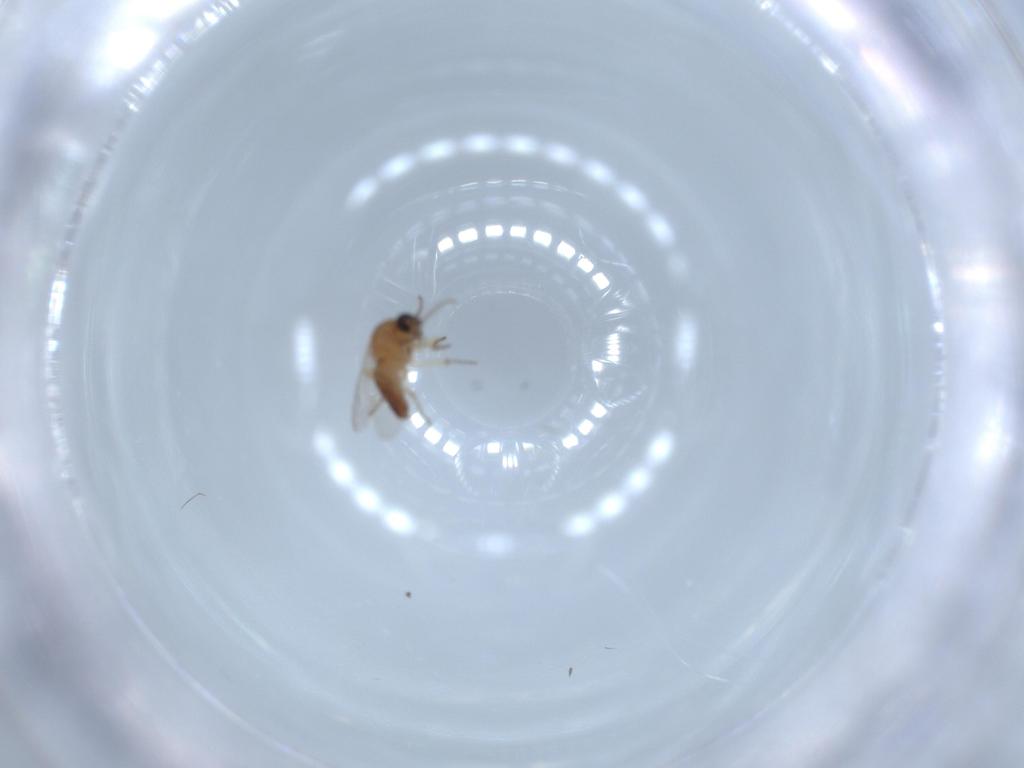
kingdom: Animalia
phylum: Arthropoda
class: Insecta
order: Diptera
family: Ceratopogonidae
